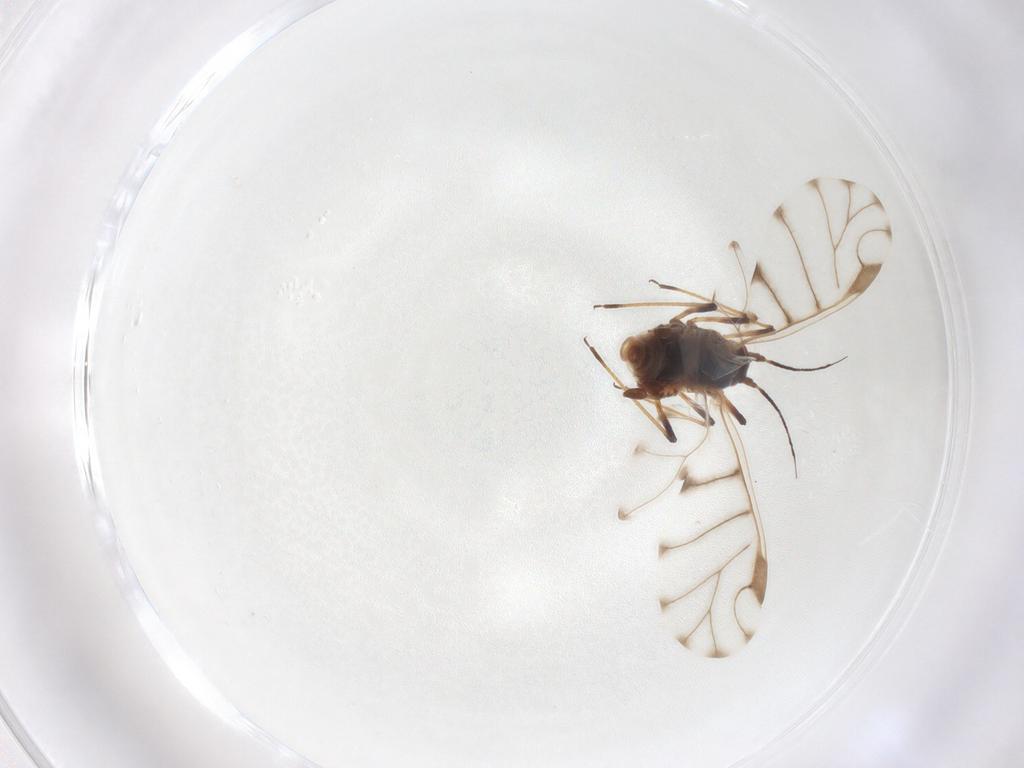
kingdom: Animalia
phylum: Arthropoda
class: Insecta
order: Hemiptera
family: Aphididae
